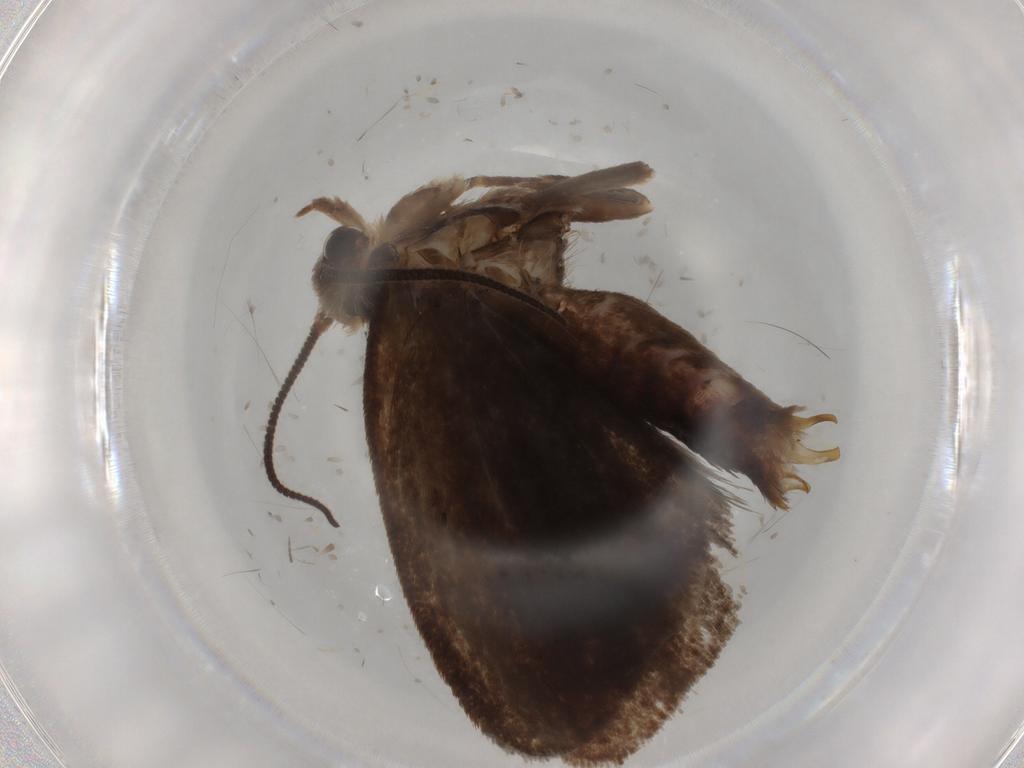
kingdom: Animalia
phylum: Arthropoda
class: Insecta
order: Lepidoptera
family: Tineidae
